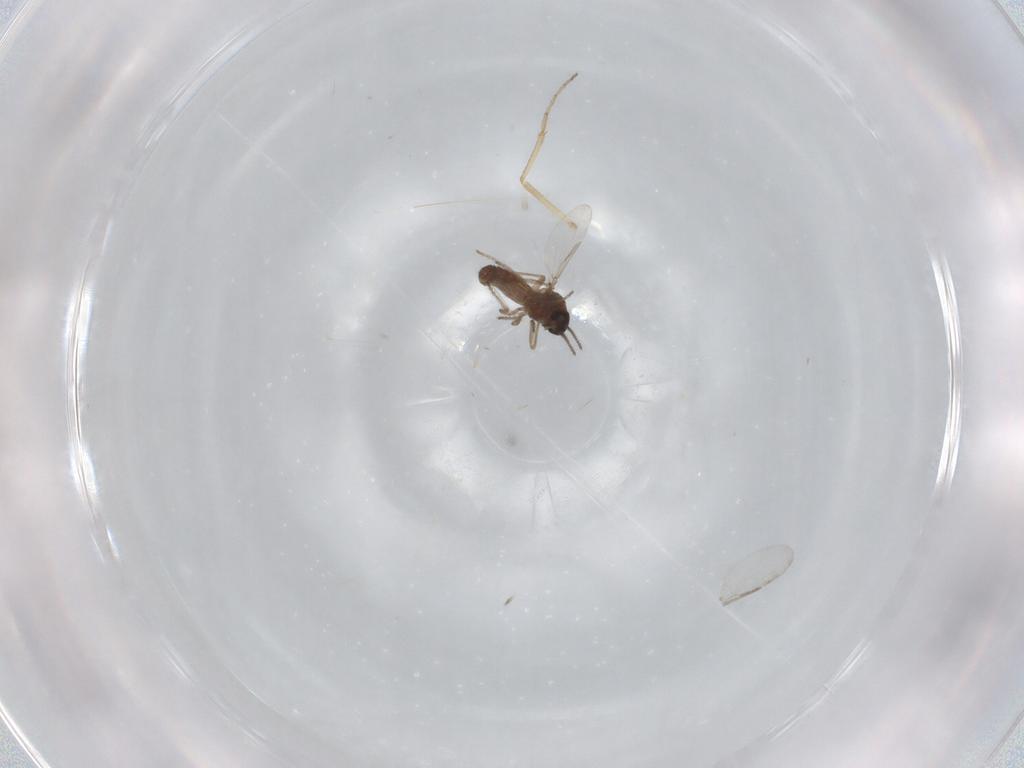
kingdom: Animalia
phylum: Arthropoda
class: Insecta
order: Diptera
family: Ceratopogonidae
